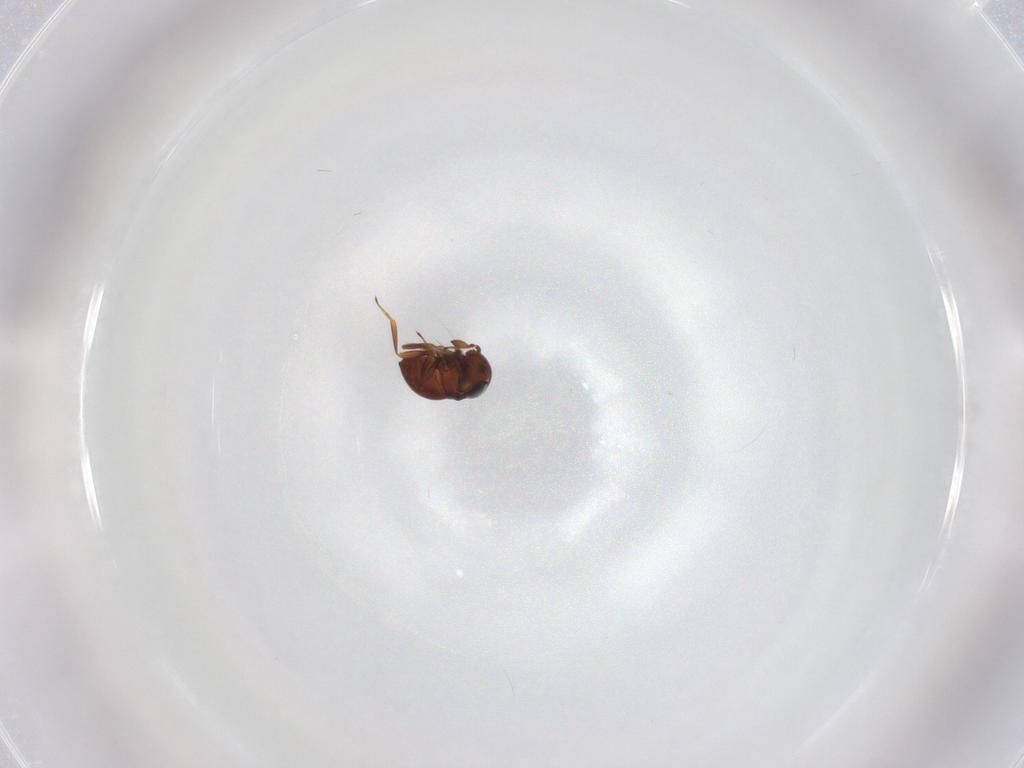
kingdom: Animalia
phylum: Arthropoda
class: Insecta
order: Hymenoptera
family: Scelionidae
